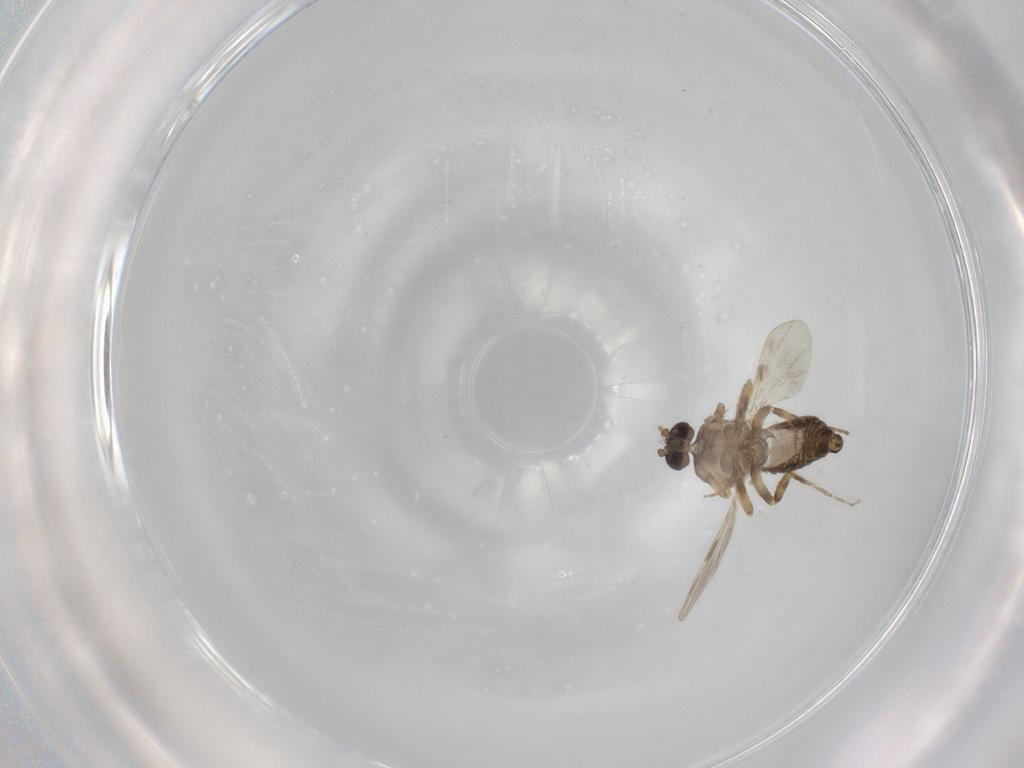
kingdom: Animalia
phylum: Arthropoda
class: Insecta
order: Diptera
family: Ceratopogonidae
